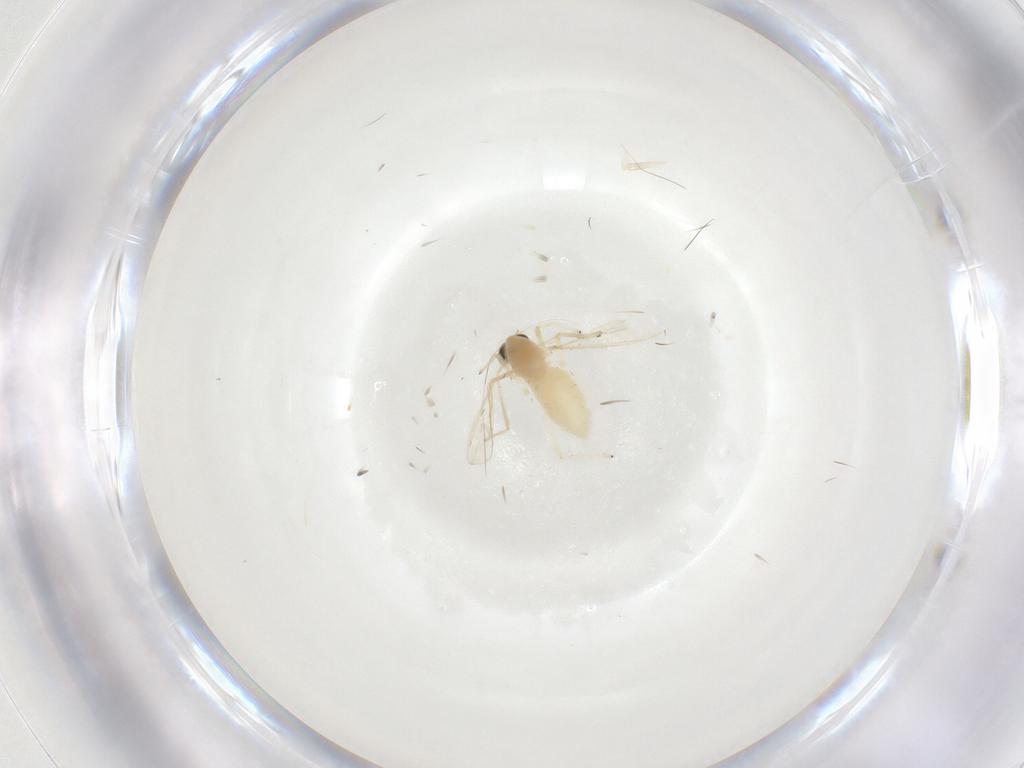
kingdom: Animalia
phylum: Arthropoda
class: Insecta
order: Diptera
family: Chironomidae
